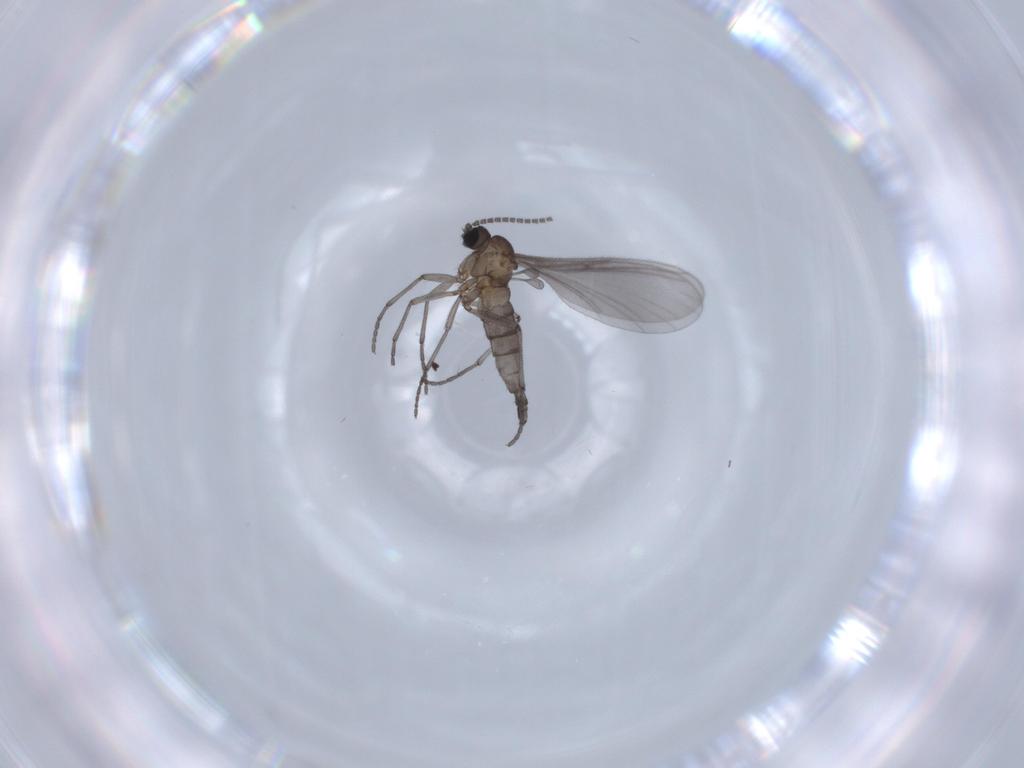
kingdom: Animalia
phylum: Arthropoda
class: Insecta
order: Diptera
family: Sciaridae
